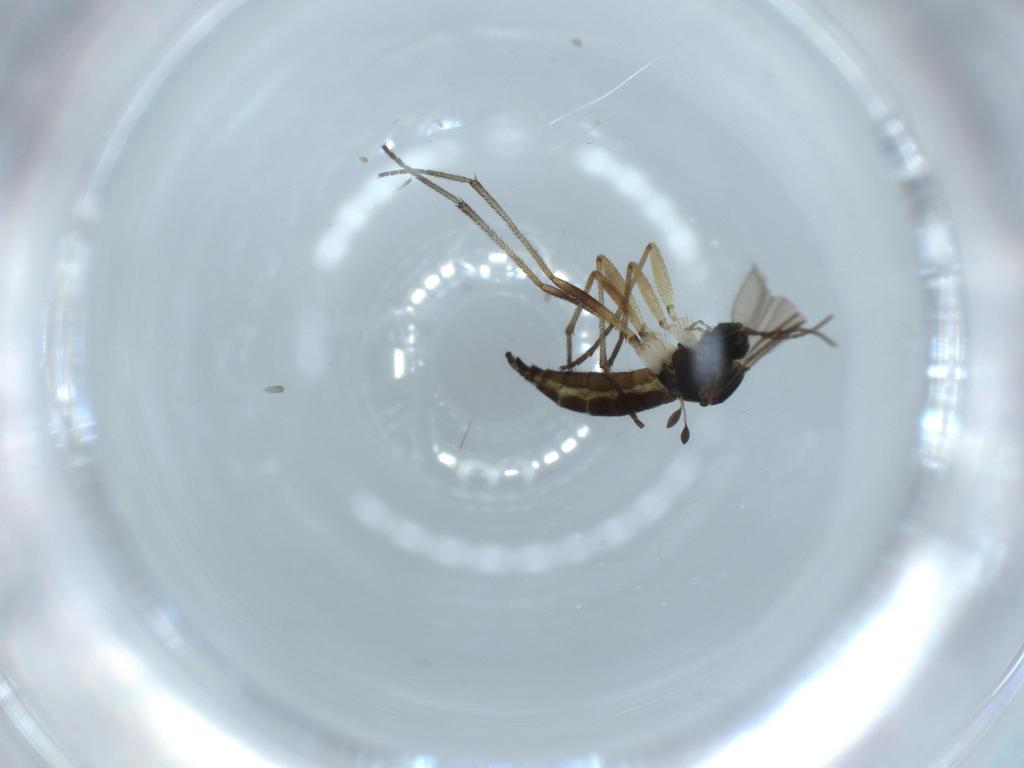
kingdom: Animalia
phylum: Arthropoda
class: Insecta
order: Diptera
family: Sciaridae
